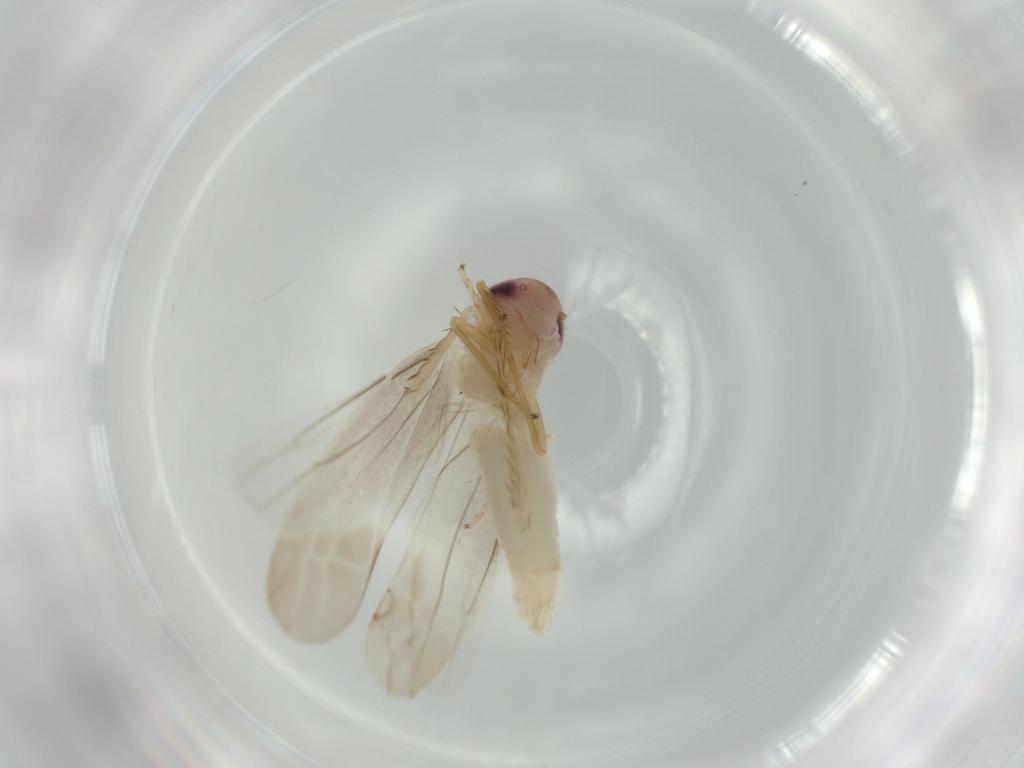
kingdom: Animalia
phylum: Arthropoda
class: Insecta
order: Hemiptera
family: Cicadellidae
